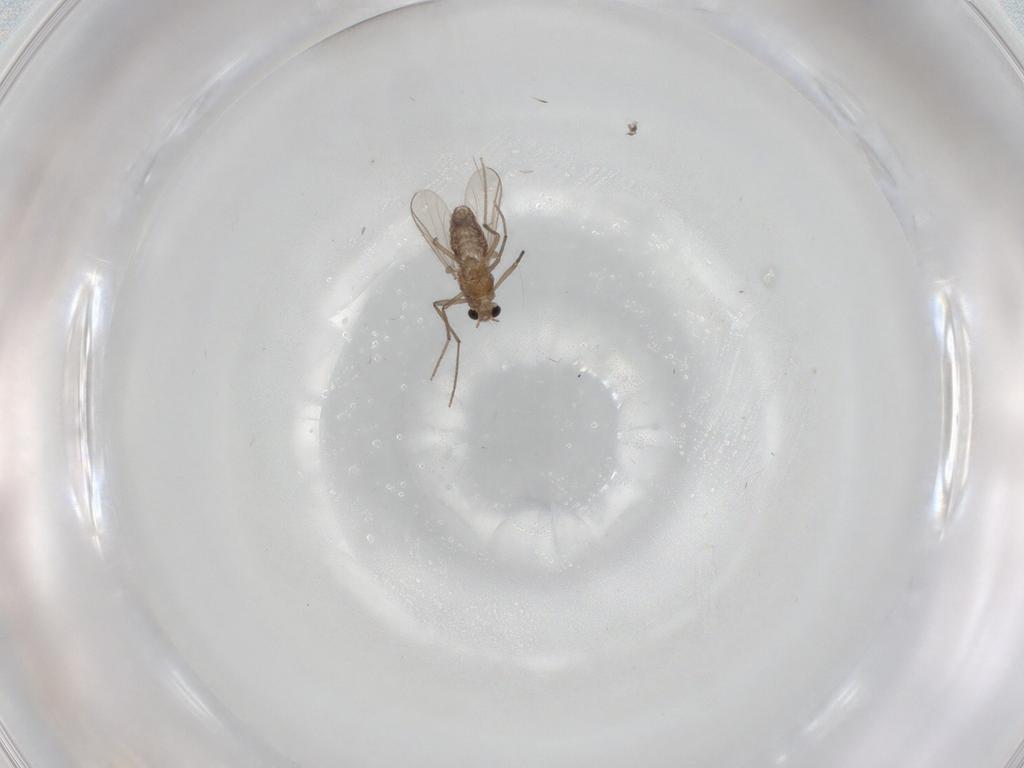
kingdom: Animalia
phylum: Arthropoda
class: Insecta
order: Diptera
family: Chironomidae
